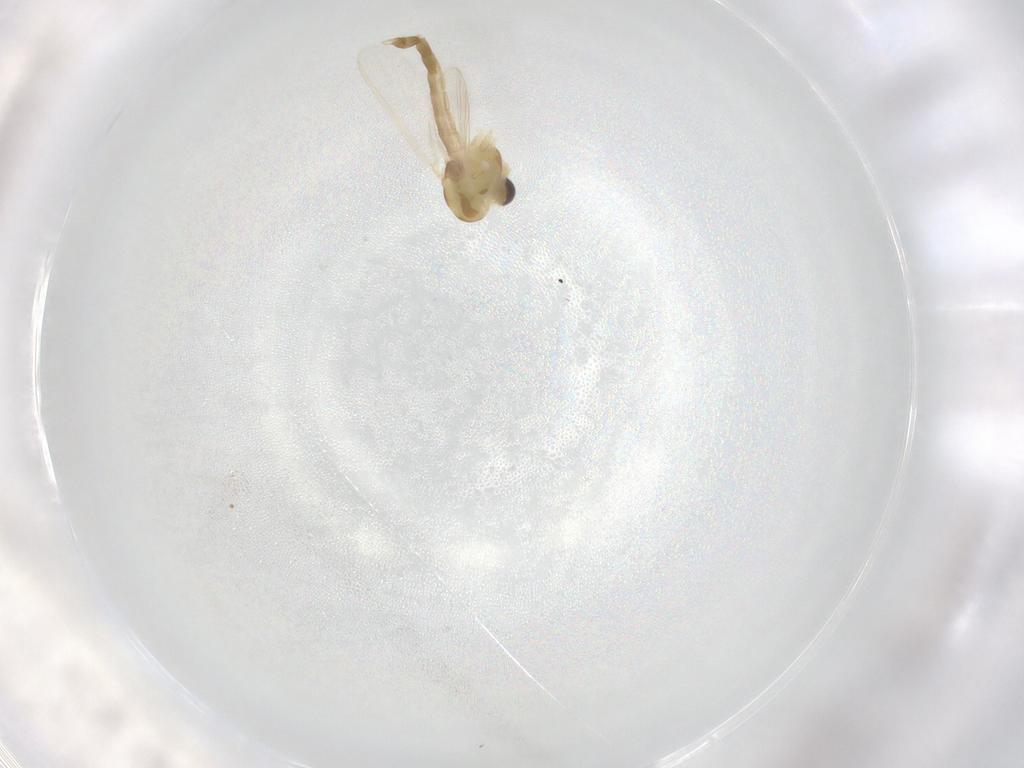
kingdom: Animalia
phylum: Arthropoda
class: Insecta
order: Diptera
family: Chironomidae
